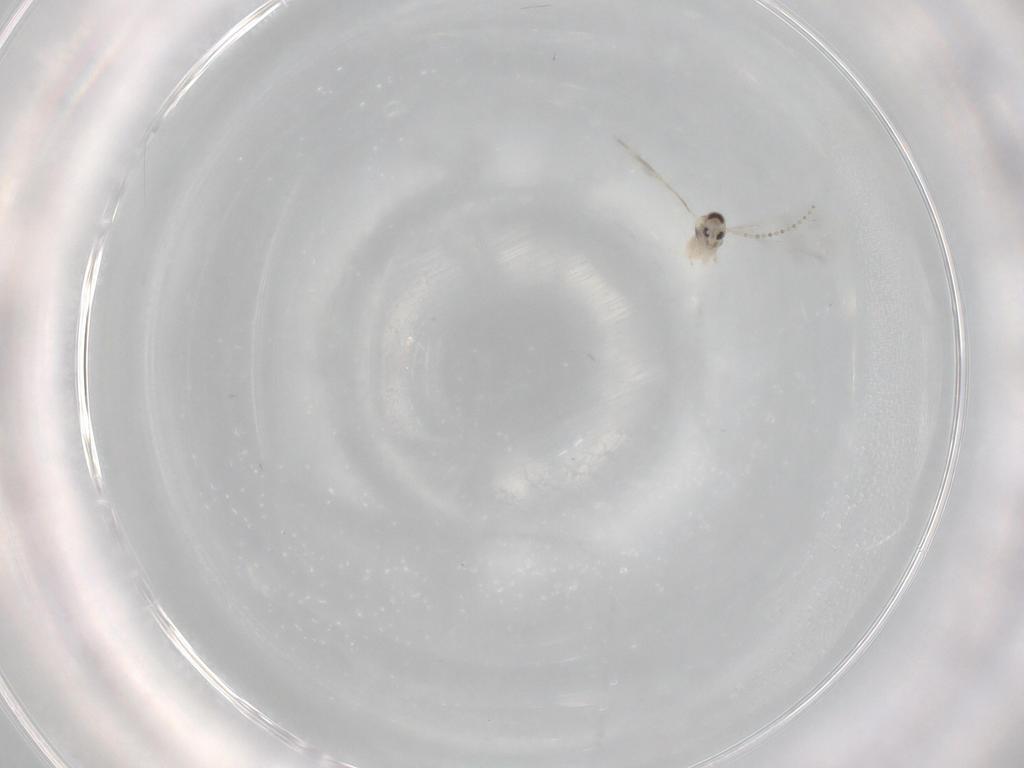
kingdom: Animalia
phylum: Arthropoda
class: Insecta
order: Diptera
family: Cecidomyiidae
